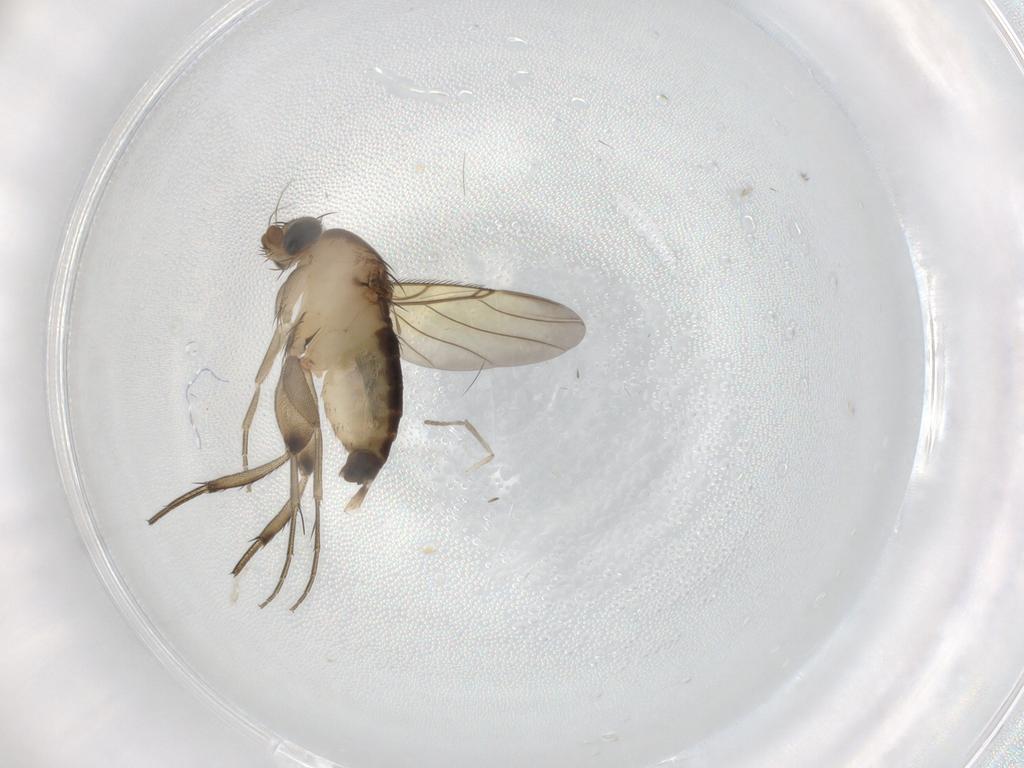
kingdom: Animalia
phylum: Arthropoda
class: Insecta
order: Diptera
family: Phoridae
